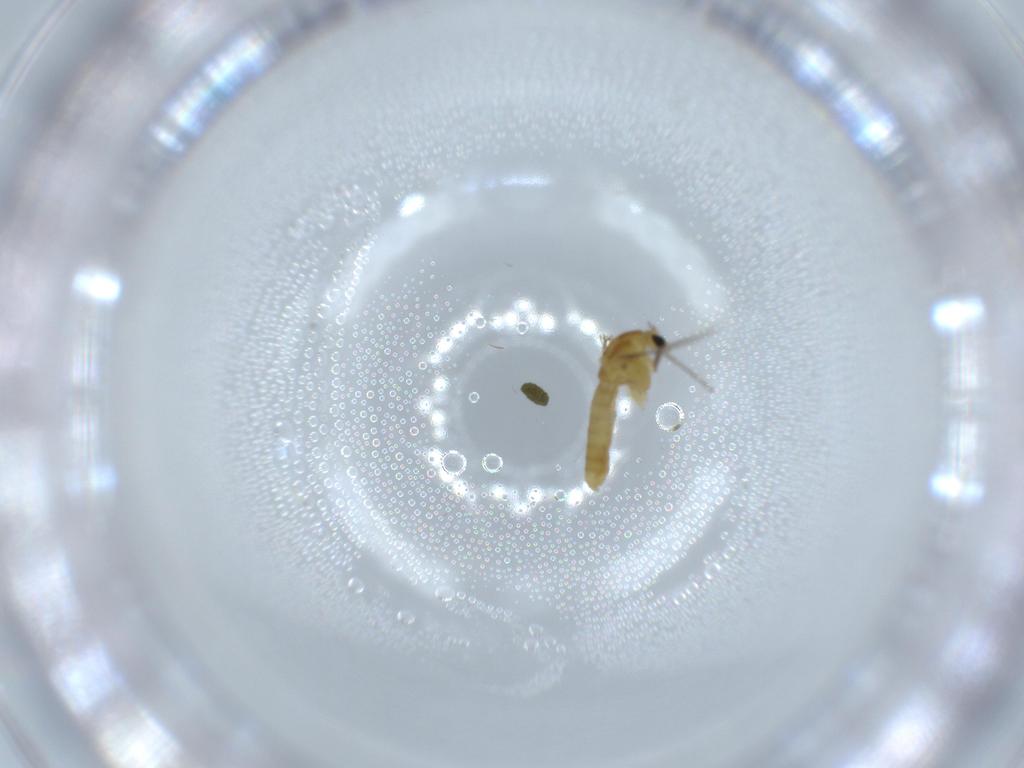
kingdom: Animalia
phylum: Arthropoda
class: Insecta
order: Diptera
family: Chironomidae
